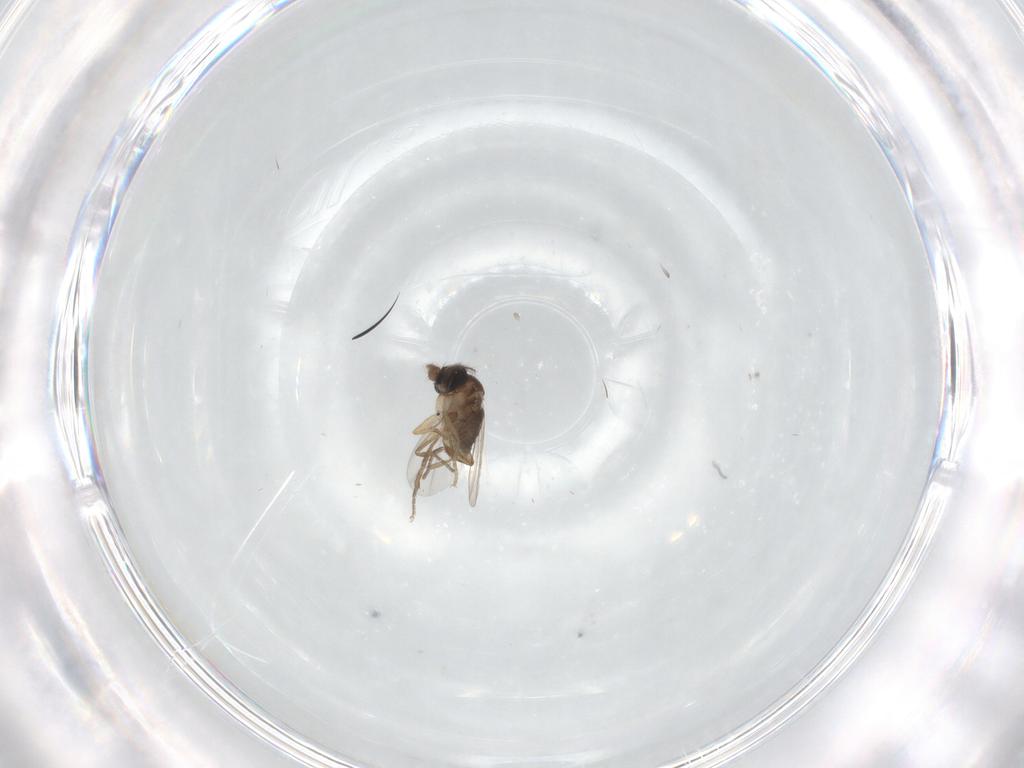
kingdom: Animalia
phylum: Arthropoda
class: Insecta
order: Diptera
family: Phoridae
